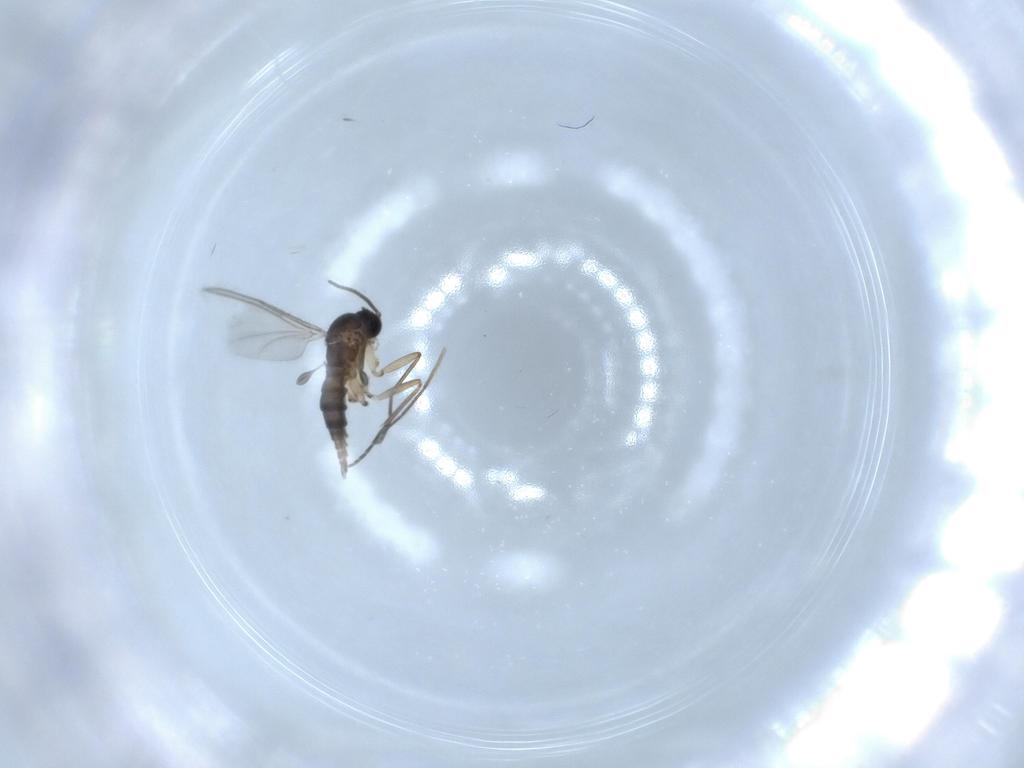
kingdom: Animalia
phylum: Arthropoda
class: Insecta
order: Diptera
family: Sciaridae
